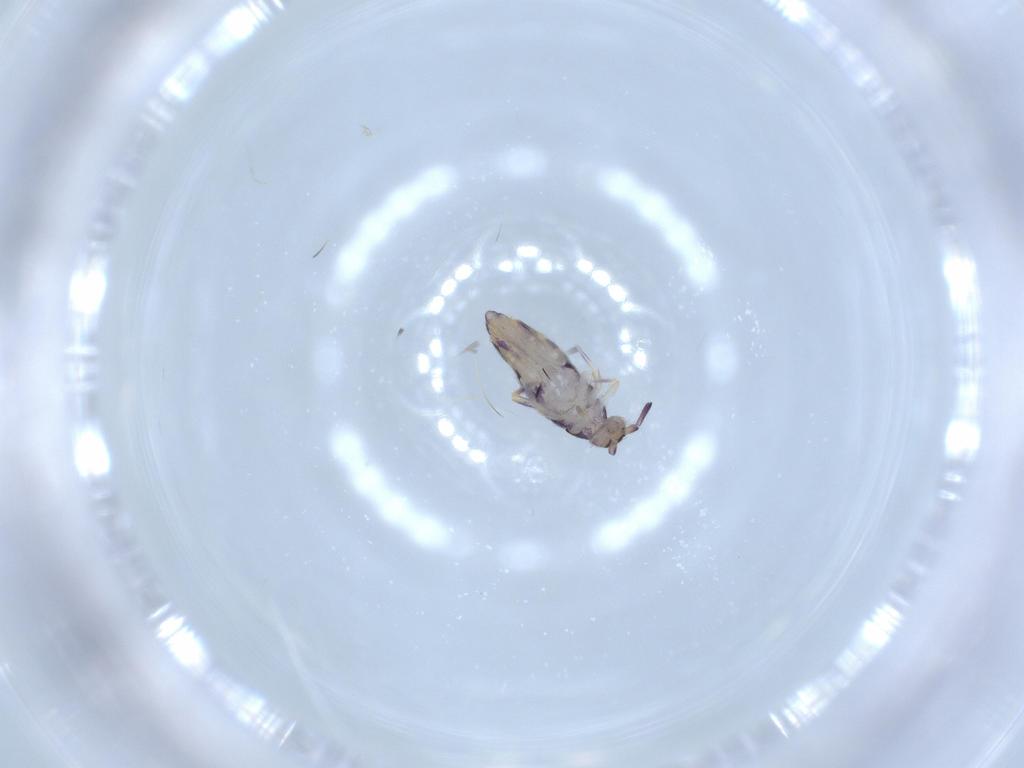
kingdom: Animalia
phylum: Arthropoda
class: Collembola
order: Entomobryomorpha
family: Entomobryidae
